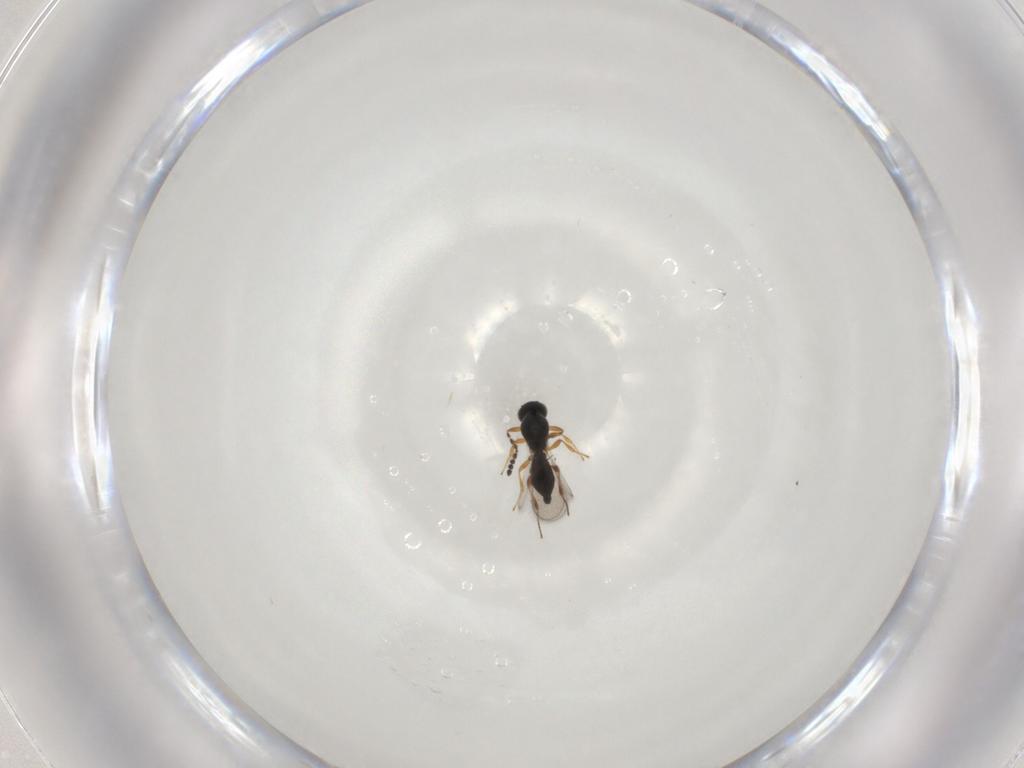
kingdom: Animalia
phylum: Arthropoda
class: Insecta
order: Hymenoptera
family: Platygastridae
